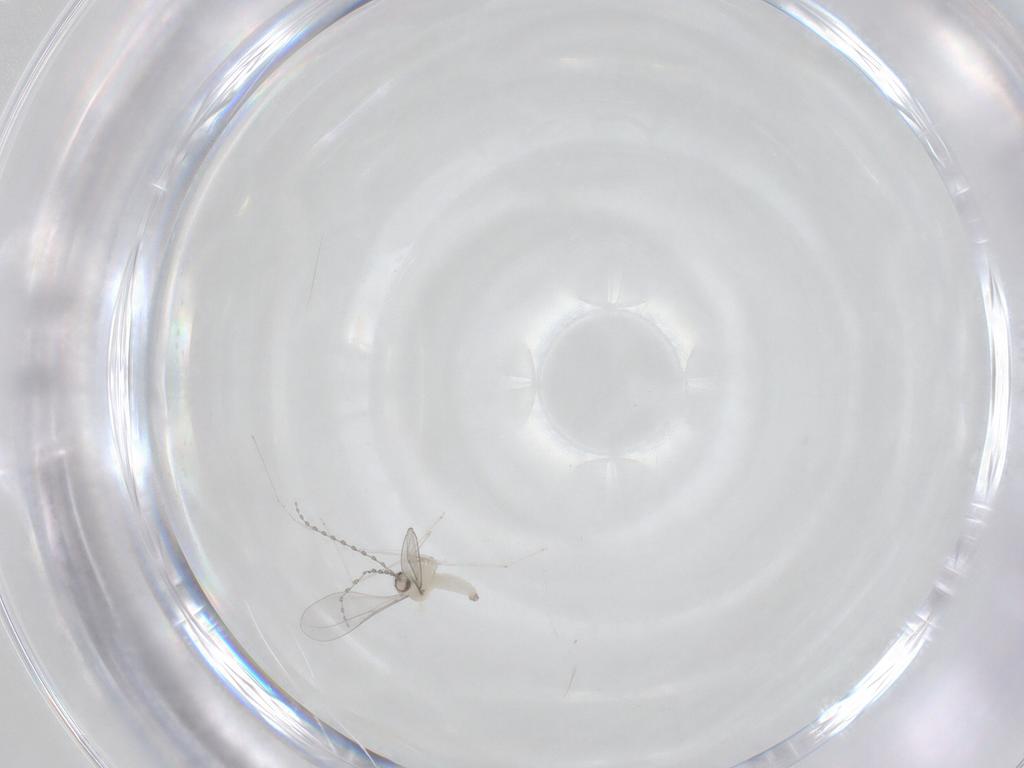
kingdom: Animalia
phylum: Arthropoda
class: Insecta
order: Diptera
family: Cecidomyiidae
